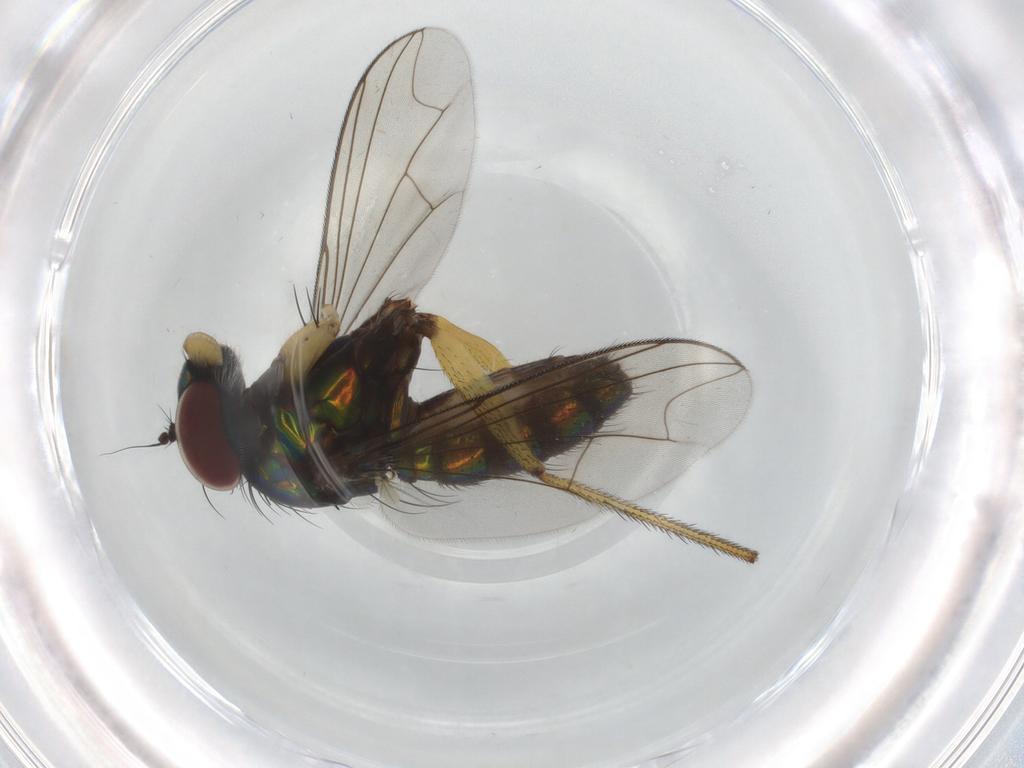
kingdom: Animalia
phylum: Arthropoda
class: Insecta
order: Diptera
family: Dolichopodidae
